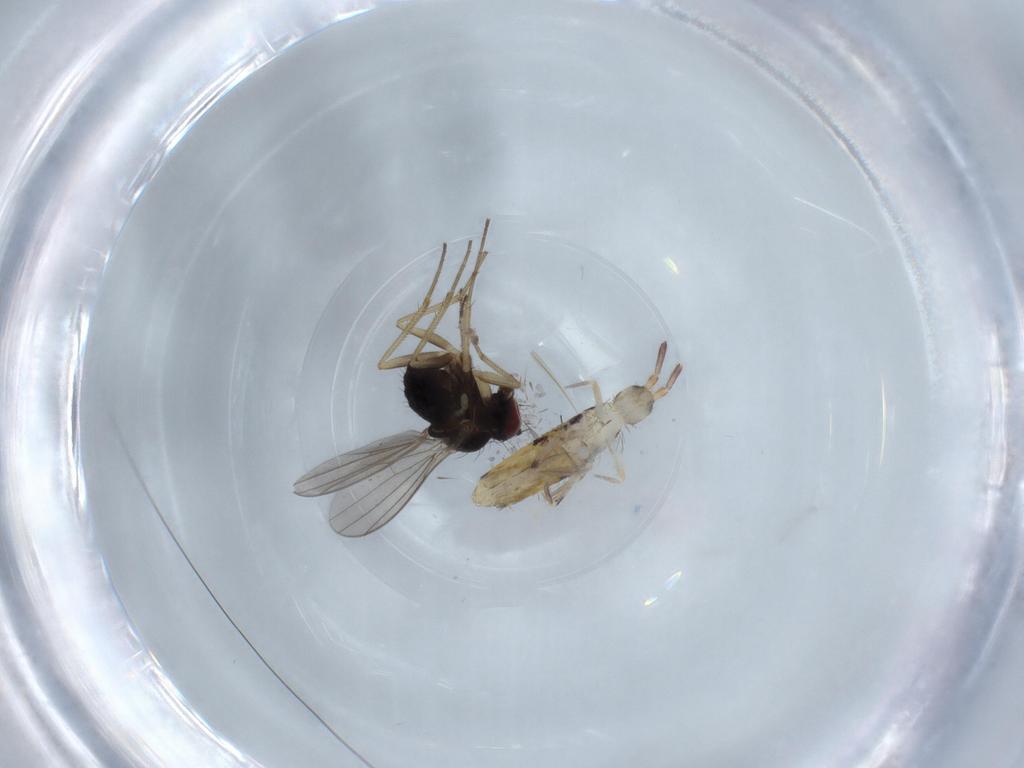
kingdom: Animalia
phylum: Arthropoda
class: Collembola
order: Entomobryomorpha
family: Entomobryidae
